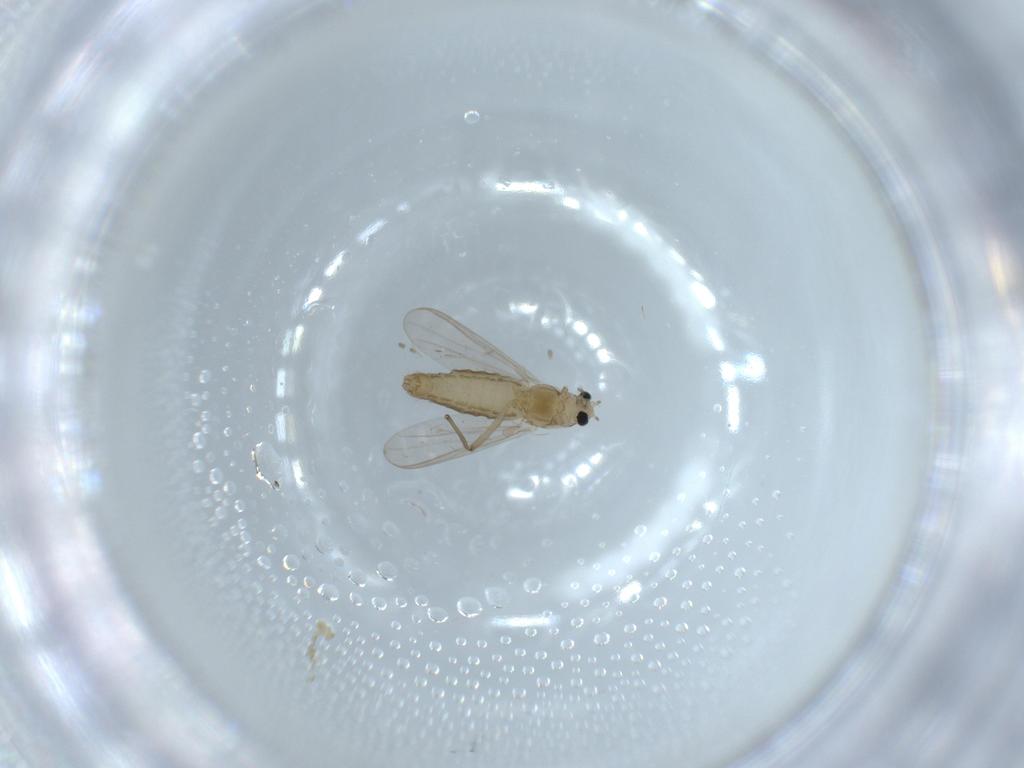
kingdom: Animalia
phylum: Arthropoda
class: Insecta
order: Diptera
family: Chironomidae
